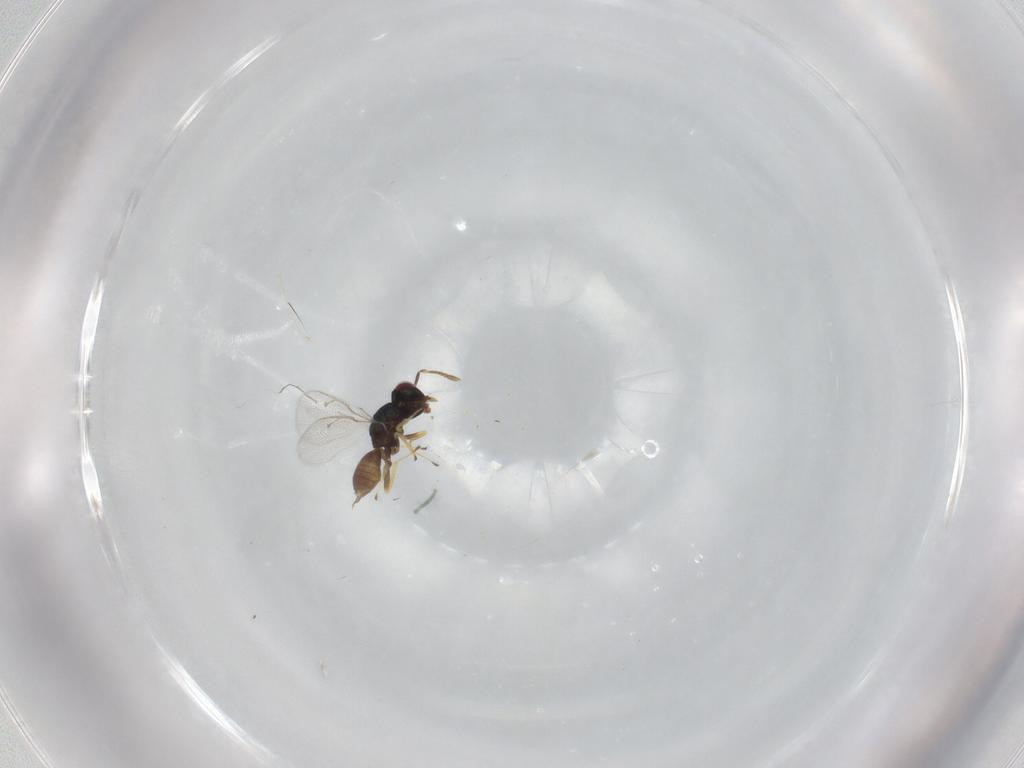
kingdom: Animalia
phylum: Arthropoda
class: Insecta
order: Hymenoptera
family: Pteromalidae
